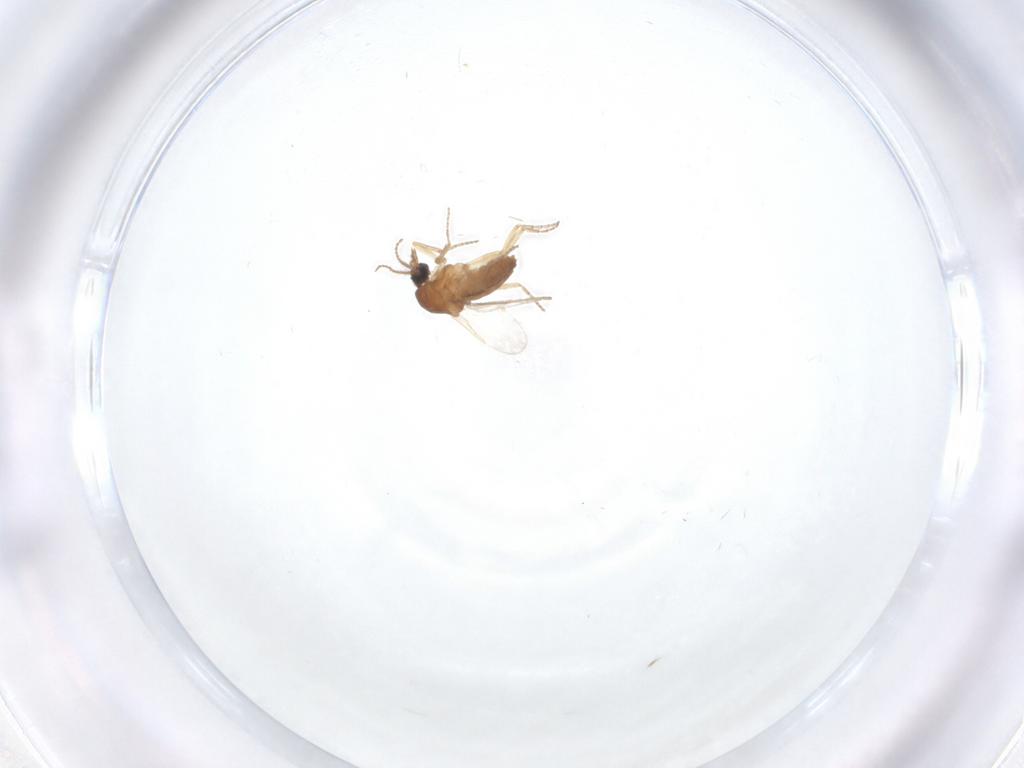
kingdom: Animalia
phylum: Arthropoda
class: Insecta
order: Diptera
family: Ceratopogonidae
